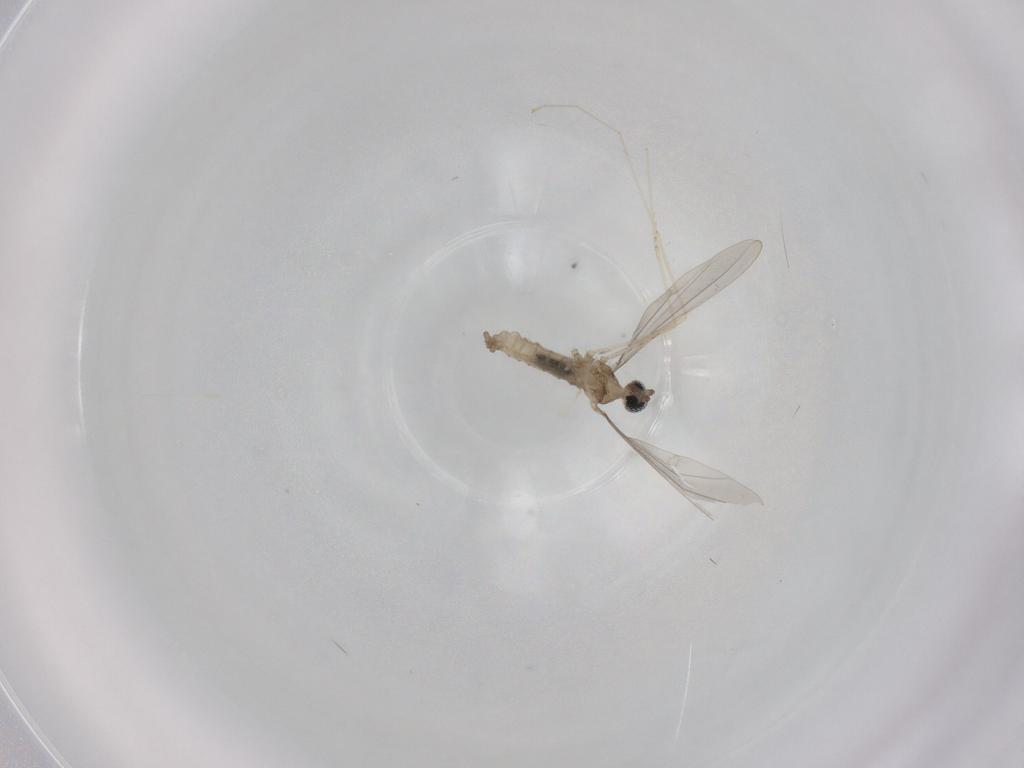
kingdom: Animalia
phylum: Arthropoda
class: Insecta
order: Diptera
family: Cecidomyiidae
